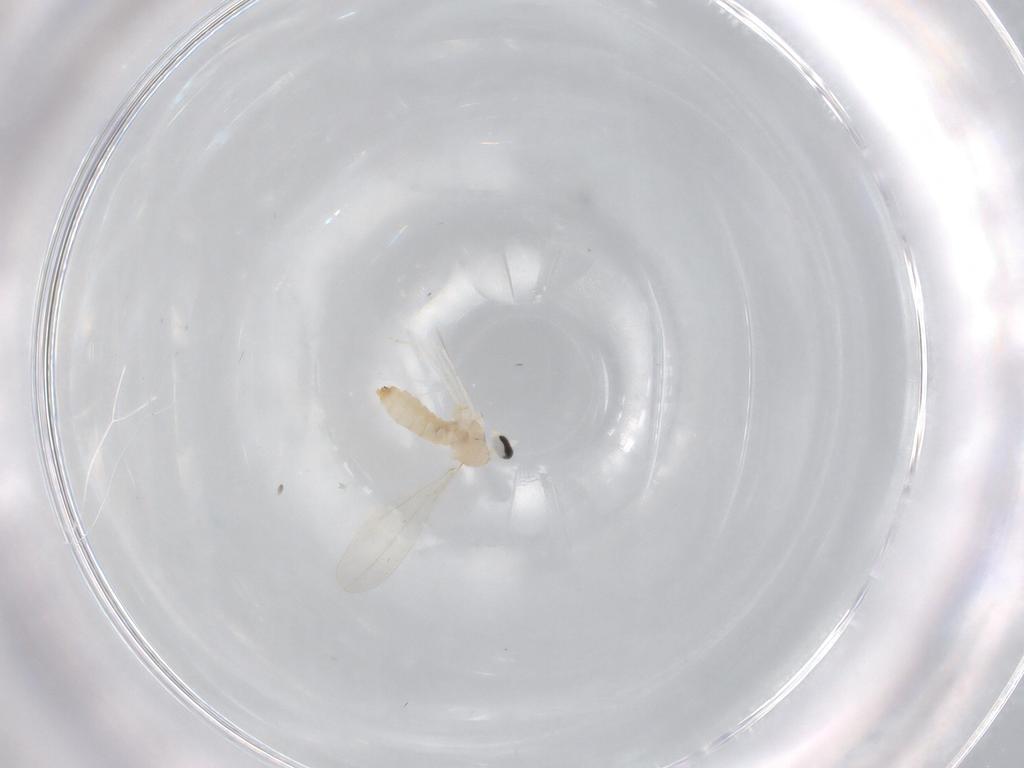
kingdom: Animalia
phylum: Arthropoda
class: Insecta
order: Diptera
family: Cecidomyiidae
